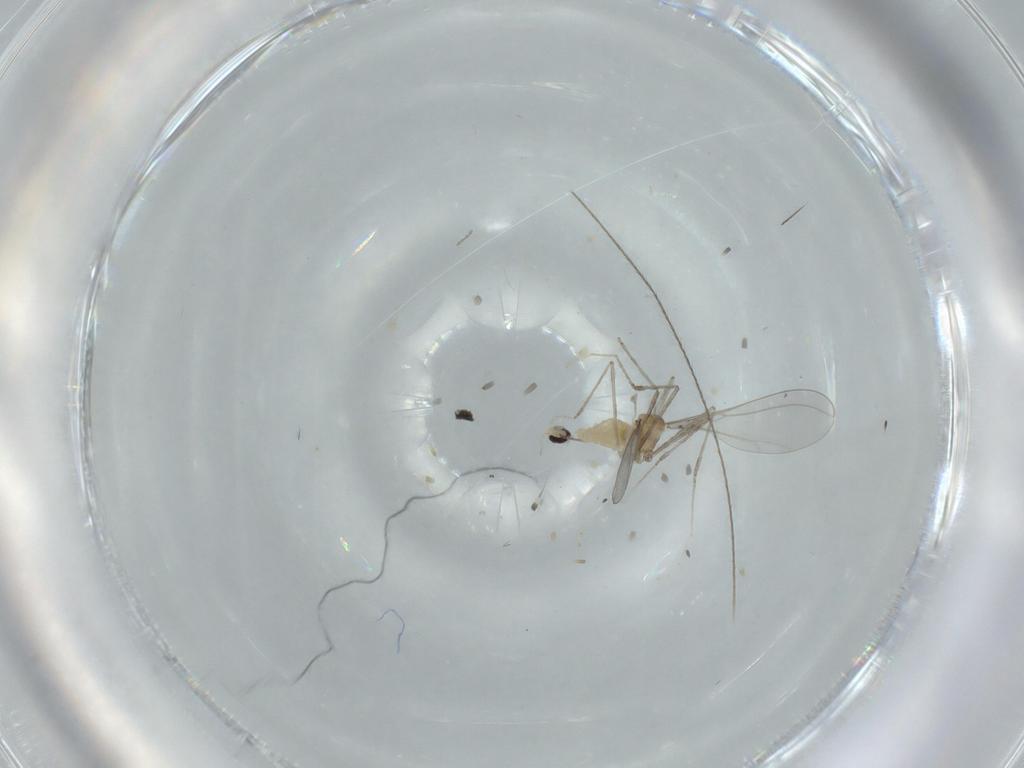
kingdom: Animalia
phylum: Arthropoda
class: Insecta
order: Diptera
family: Cecidomyiidae
